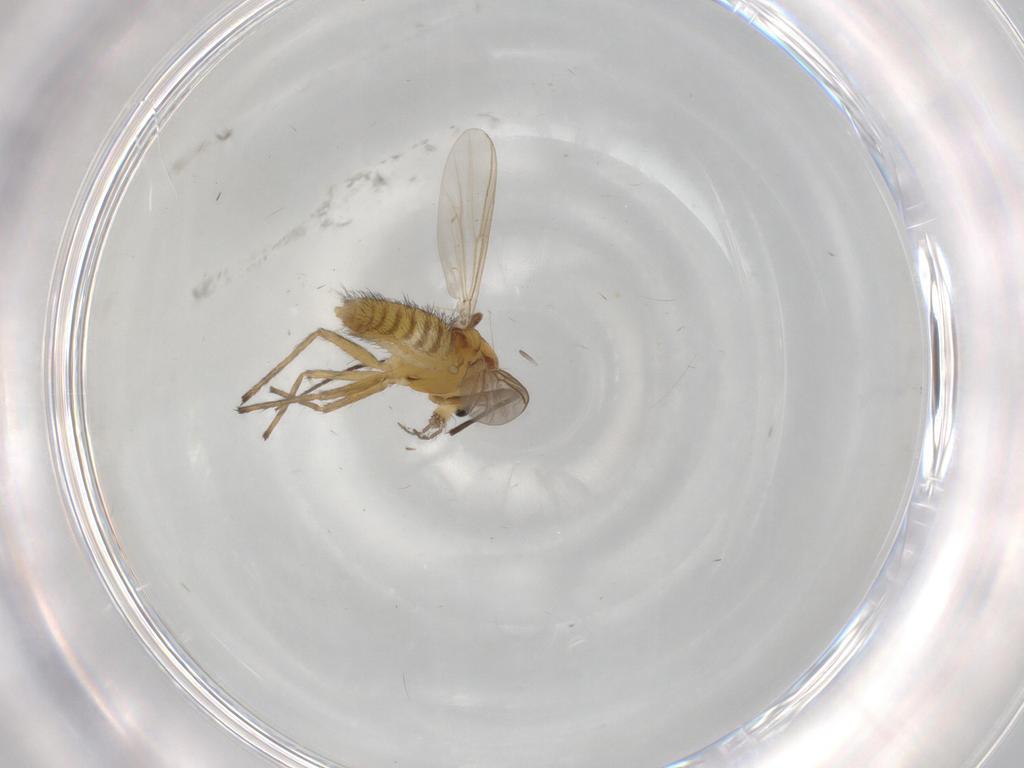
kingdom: Animalia
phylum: Arthropoda
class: Insecta
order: Diptera
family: Chironomidae
